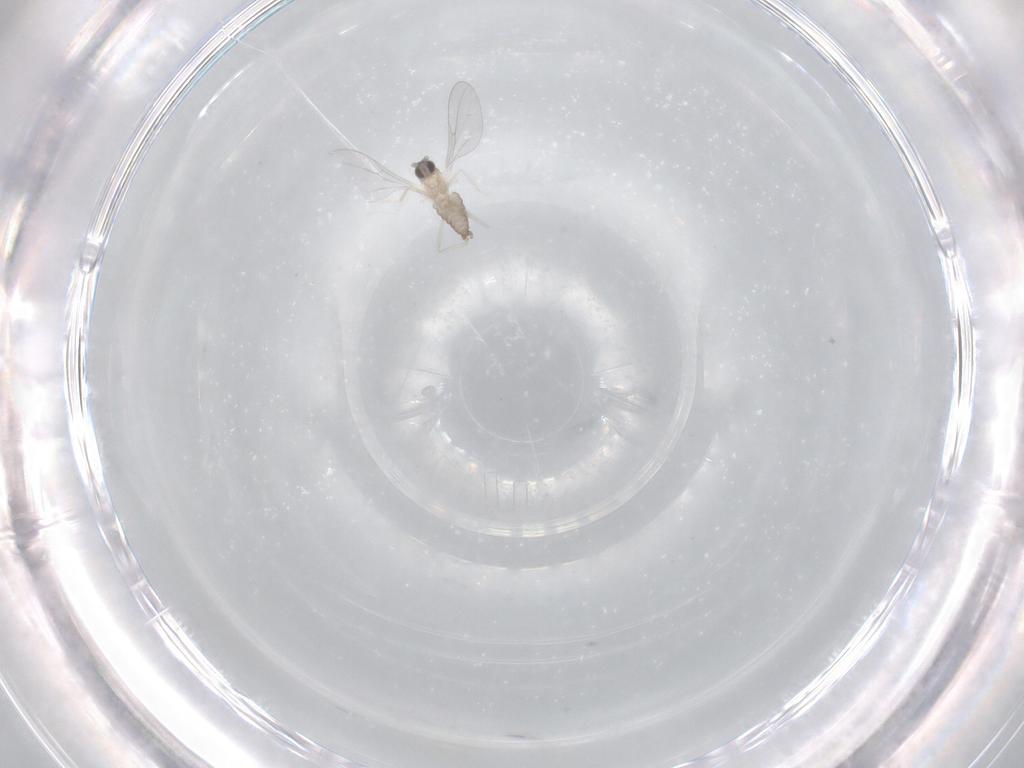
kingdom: Animalia
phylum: Arthropoda
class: Insecta
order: Diptera
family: Cecidomyiidae
